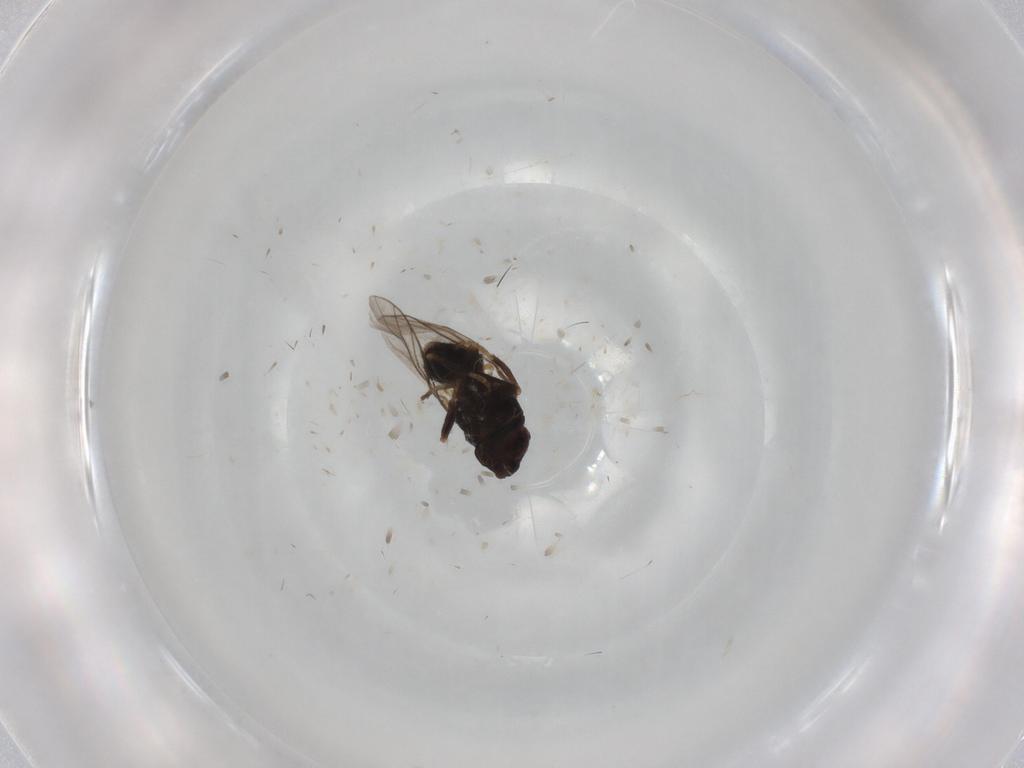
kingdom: Animalia
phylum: Arthropoda
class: Insecta
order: Diptera
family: Chloropidae
